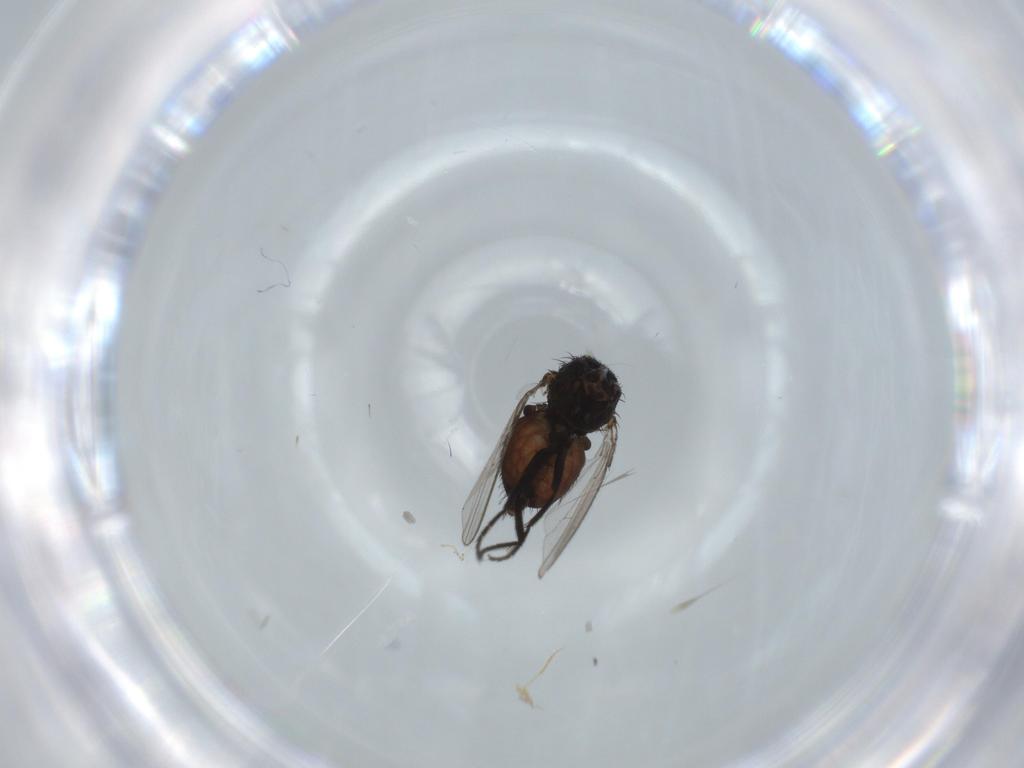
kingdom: Animalia
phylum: Arthropoda
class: Insecta
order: Diptera
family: Milichiidae
